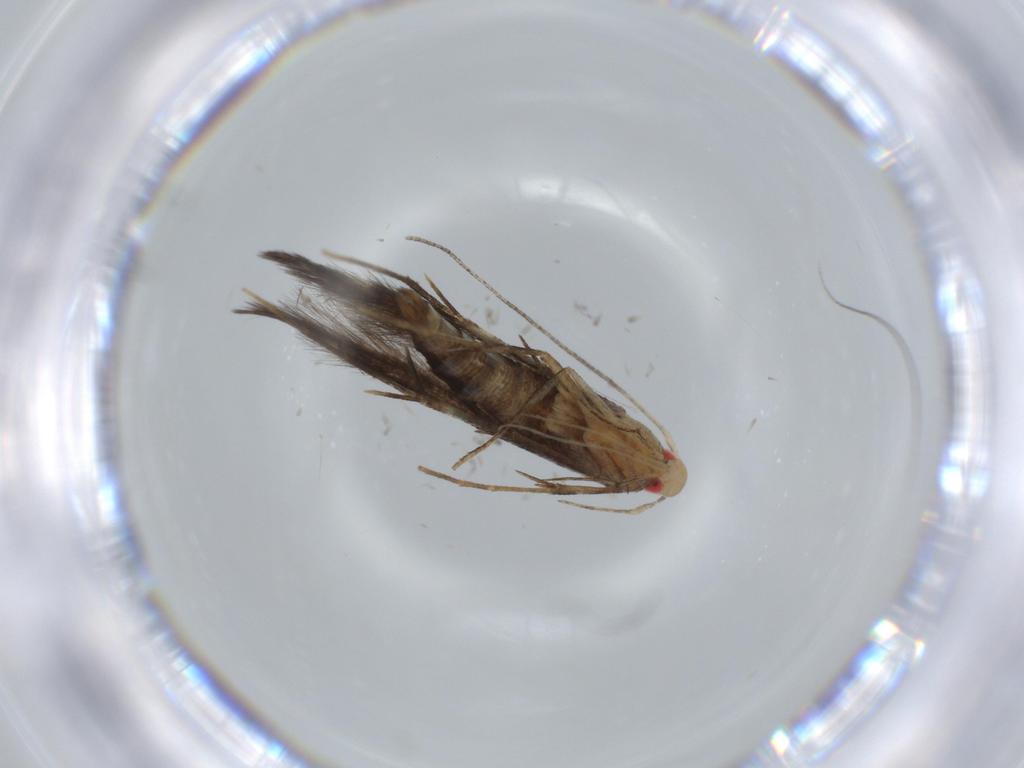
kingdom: Animalia
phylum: Arthropoda
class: Insecta
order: Lepidoptera
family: Cosmopterigidae
